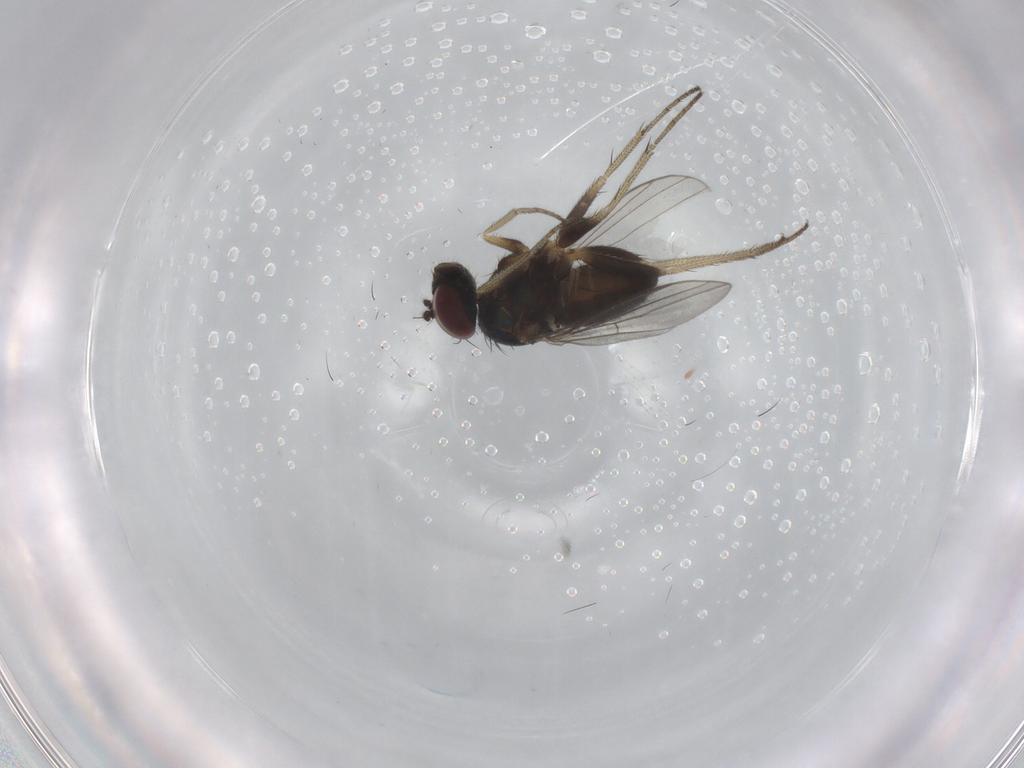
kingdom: Animalia
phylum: Arthropoda
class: Insecta
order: Diptera
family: Dolichopodidae
